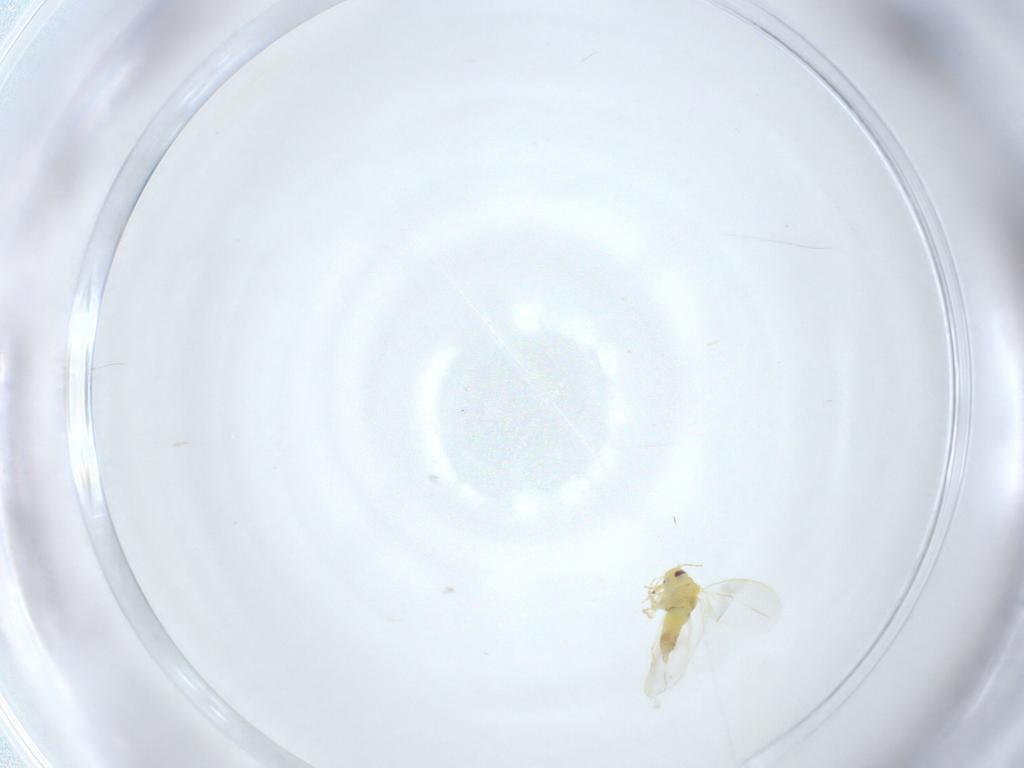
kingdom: Animalia
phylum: Arthropoda
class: Insecta
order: Hemiptera
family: Aleyrodidae
